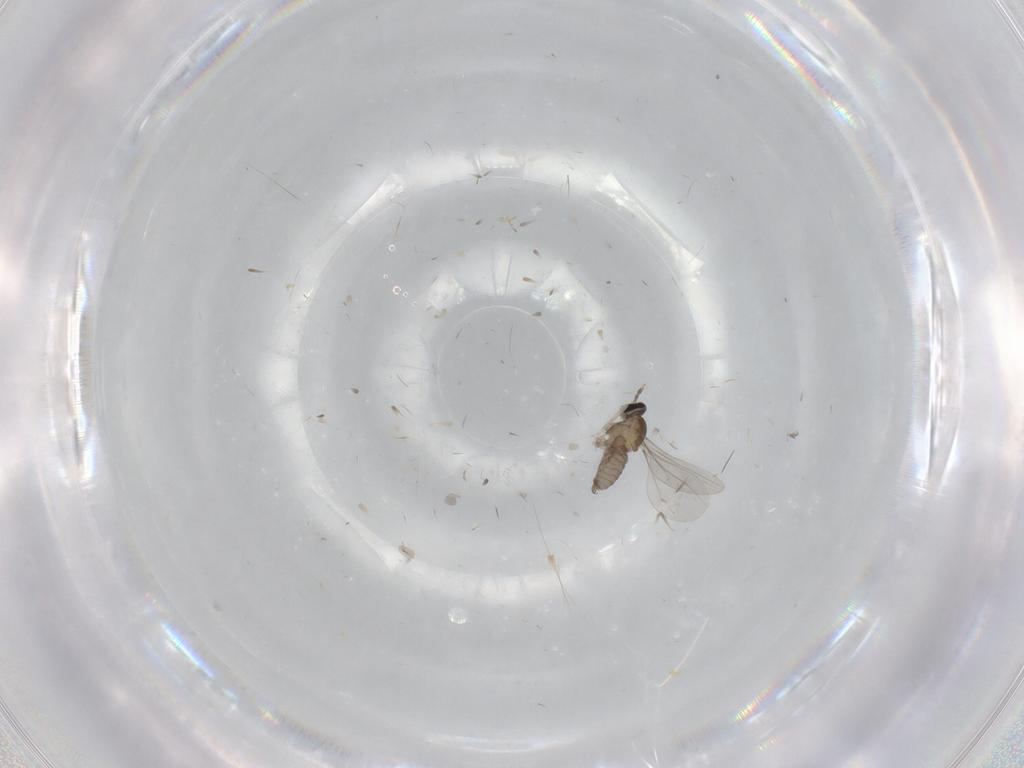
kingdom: Animalia
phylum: Arthropoda
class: Insecta
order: Diptera
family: Cecidomyiidae
